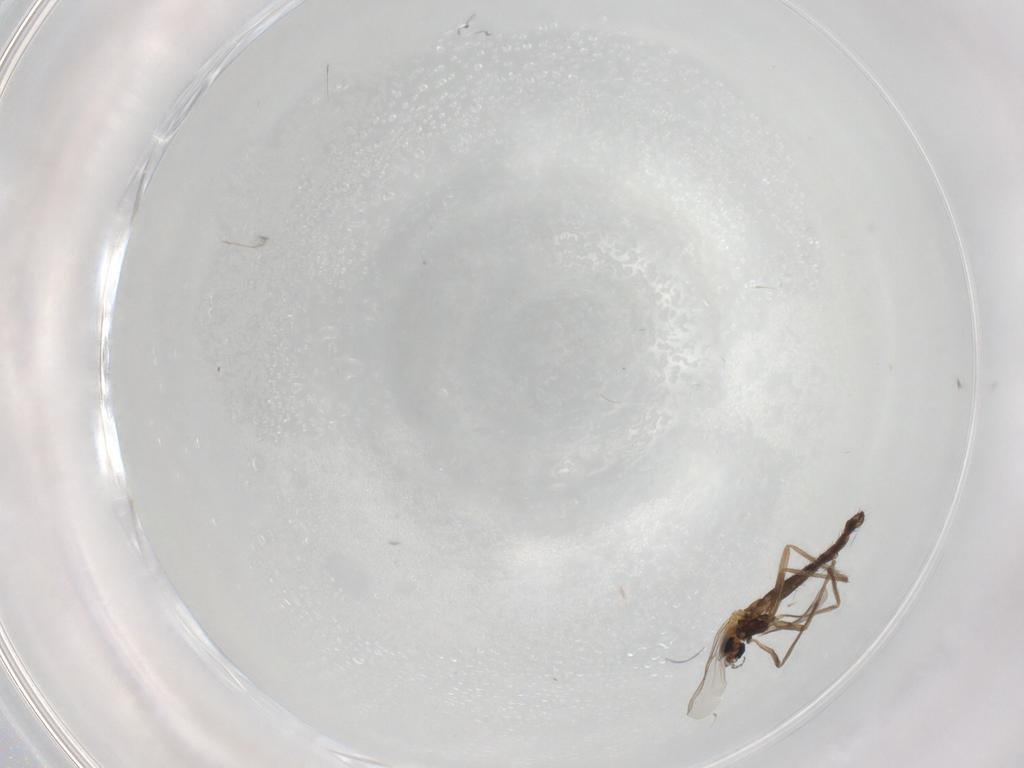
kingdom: Animalia
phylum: Arthropoda
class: Insecta
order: Diptera
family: Chironomidae
